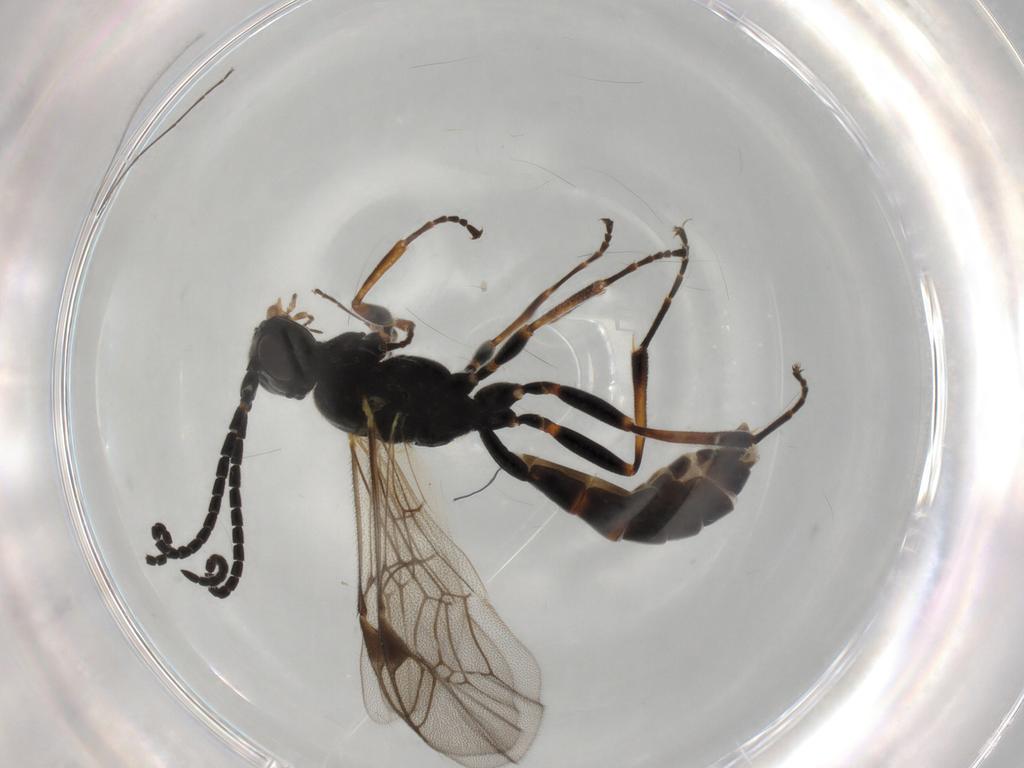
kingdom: Animalia
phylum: Arthropoda
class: Insecta
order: Hymenoptera
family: Ichneumonidae
